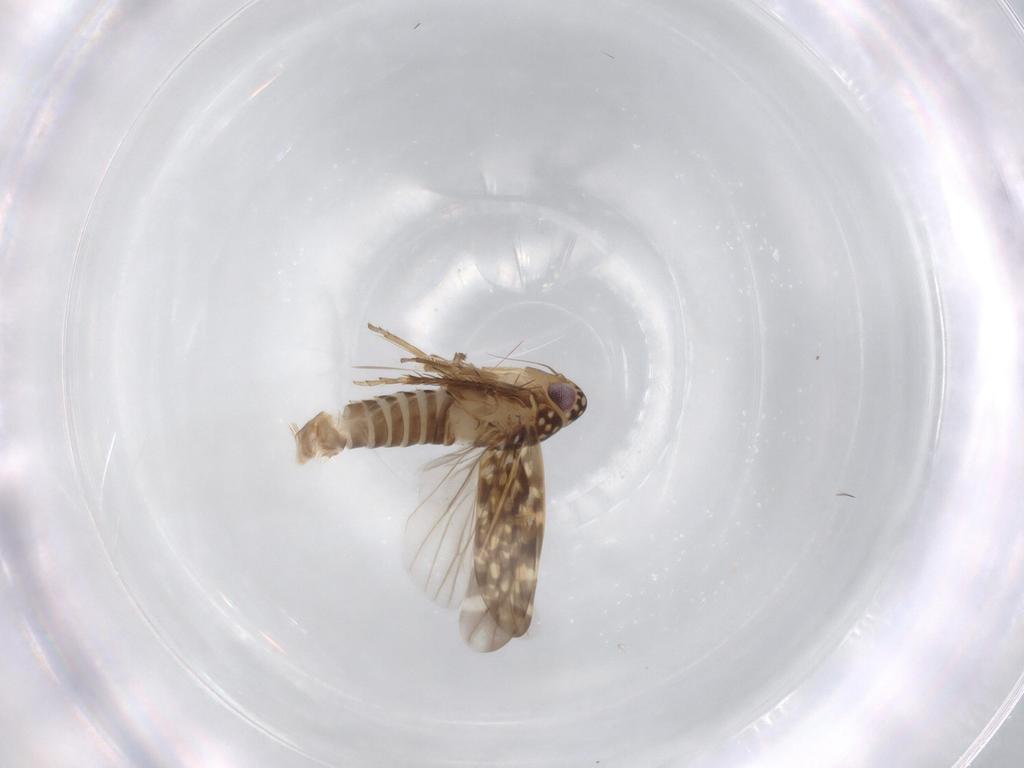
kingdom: Animalia
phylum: Arthropoda
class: Insecta
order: Hemiptera
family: Cicadellidae
